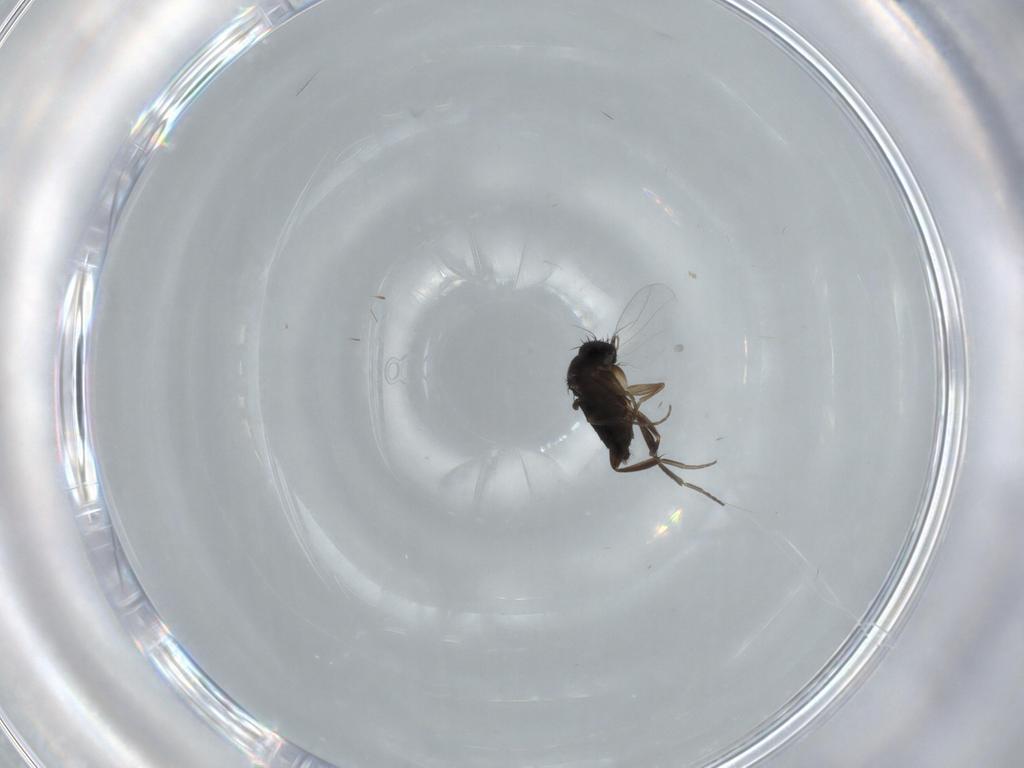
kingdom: Animalia
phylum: Arthropoda
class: Insecta
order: Diptera
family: Phoridae
